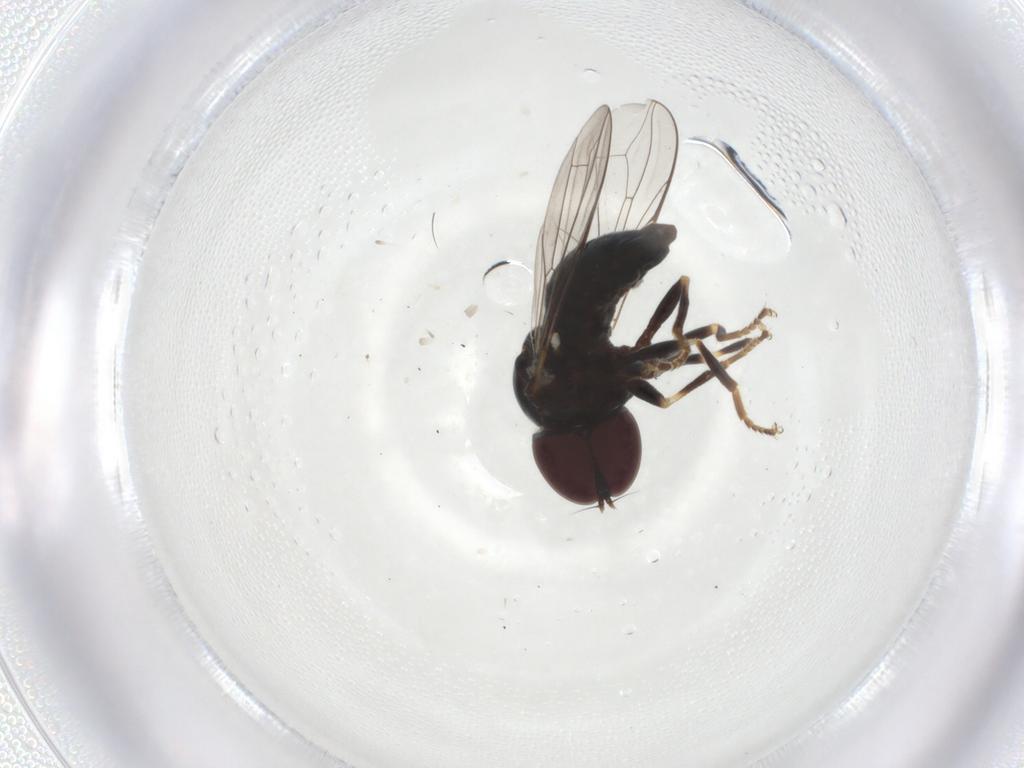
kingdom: Animalia
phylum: Arthropoda
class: Insecta
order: Diptera
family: Pipunculidae
